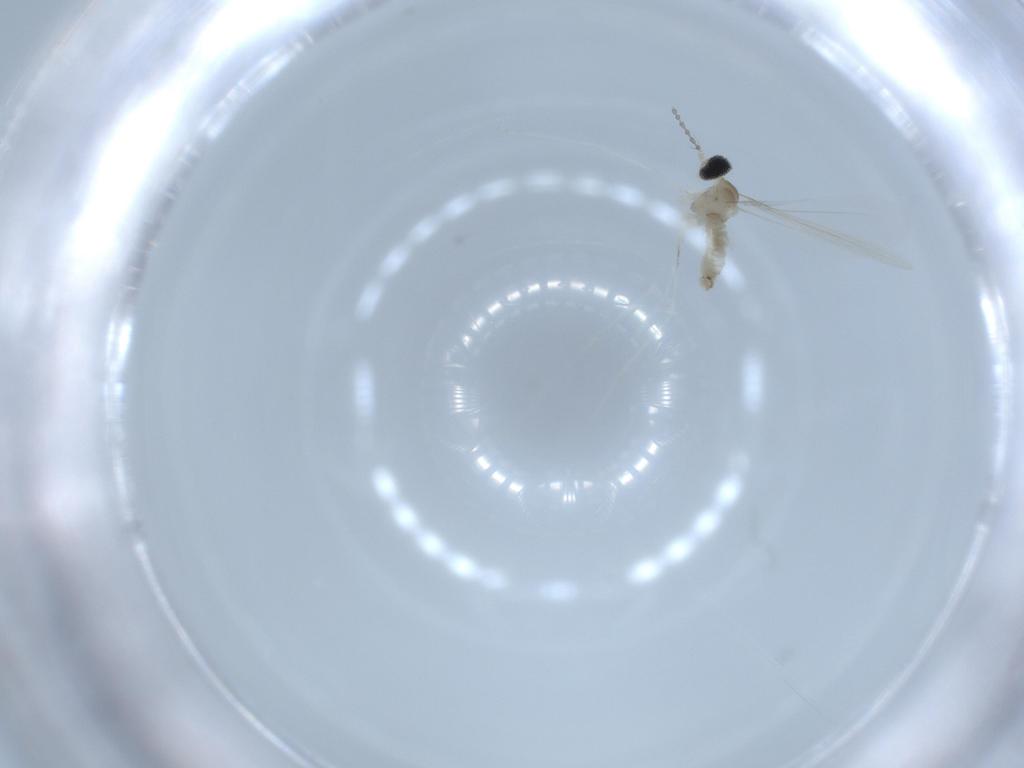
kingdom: Animalia
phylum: Arthropoda
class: Insecta
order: Diptera
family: Cecidomyiidae
